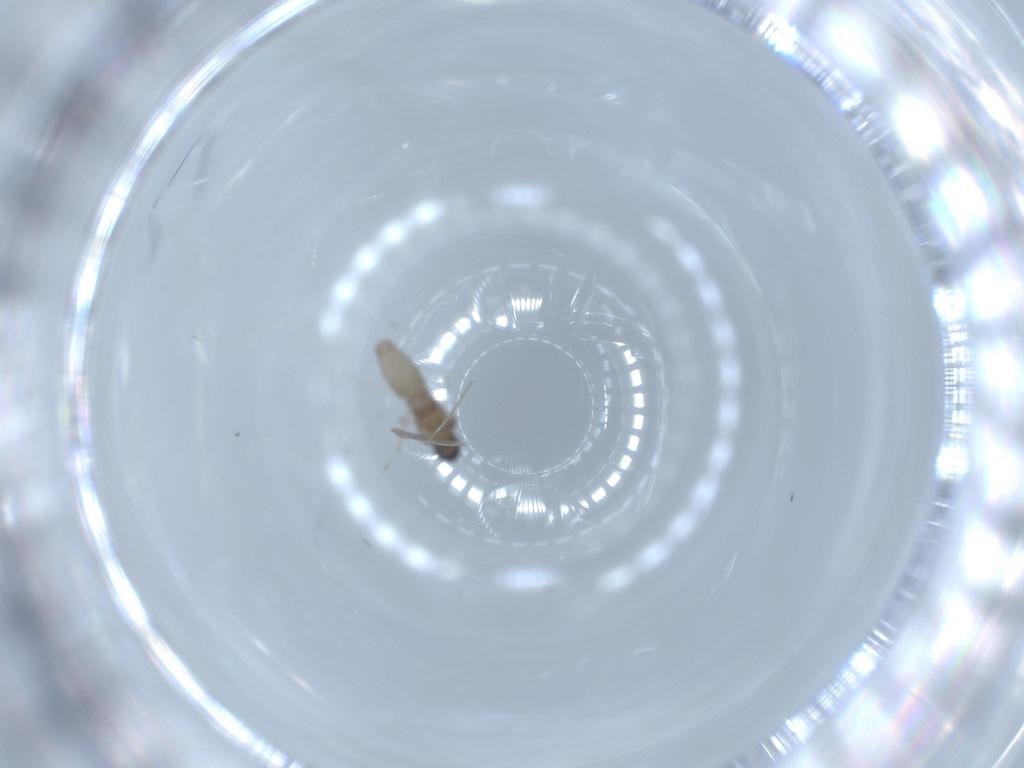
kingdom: Animalia
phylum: Arthropoda
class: Insecta
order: Diptera
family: Cecidomyiidae
